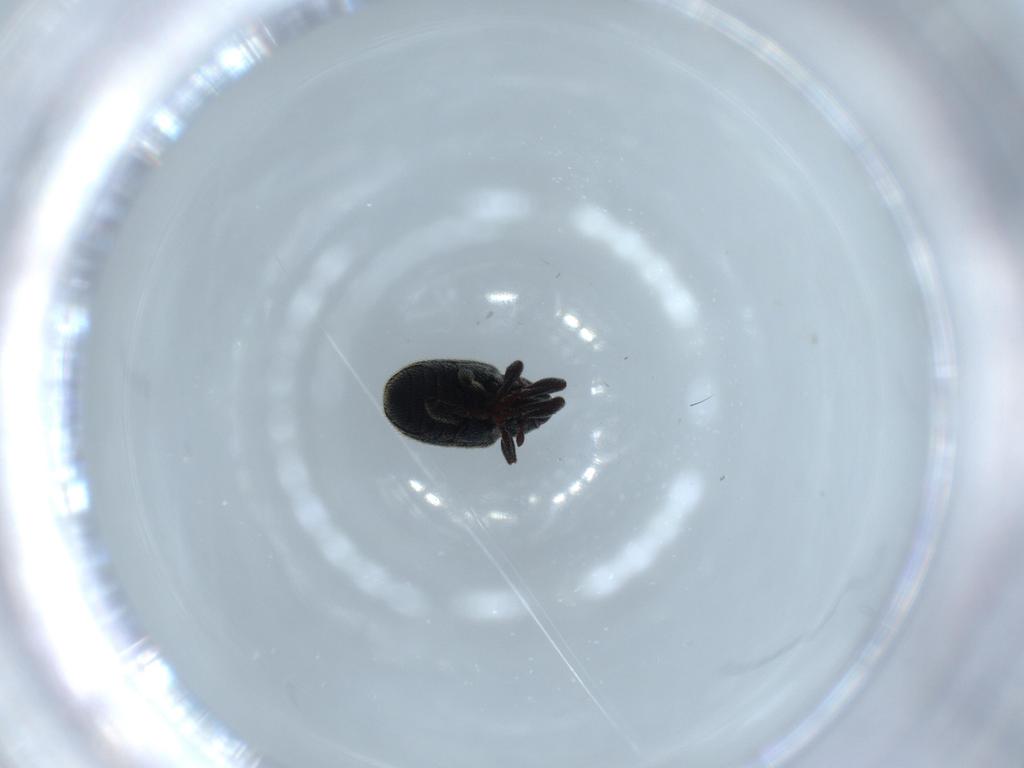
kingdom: Animalia
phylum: Arthropoda
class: Insecta
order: Coleoptera
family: Curculionidae
